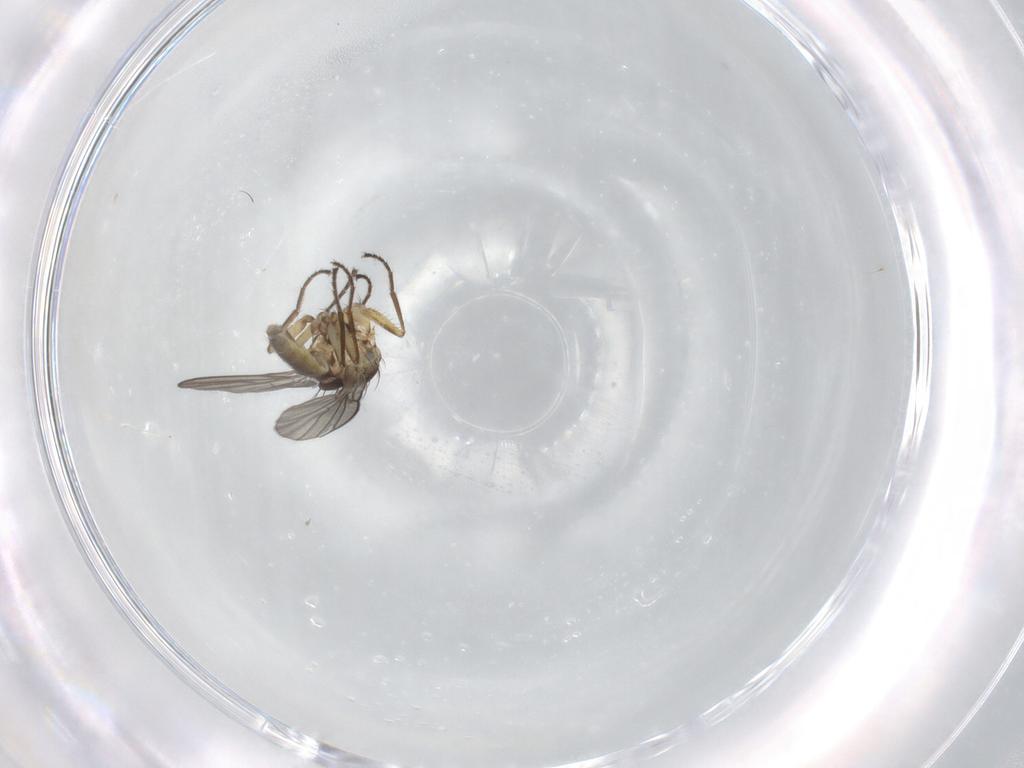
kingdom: Animalia
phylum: Arthropoda
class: Insecta
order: Diptera
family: Agromyzidae
